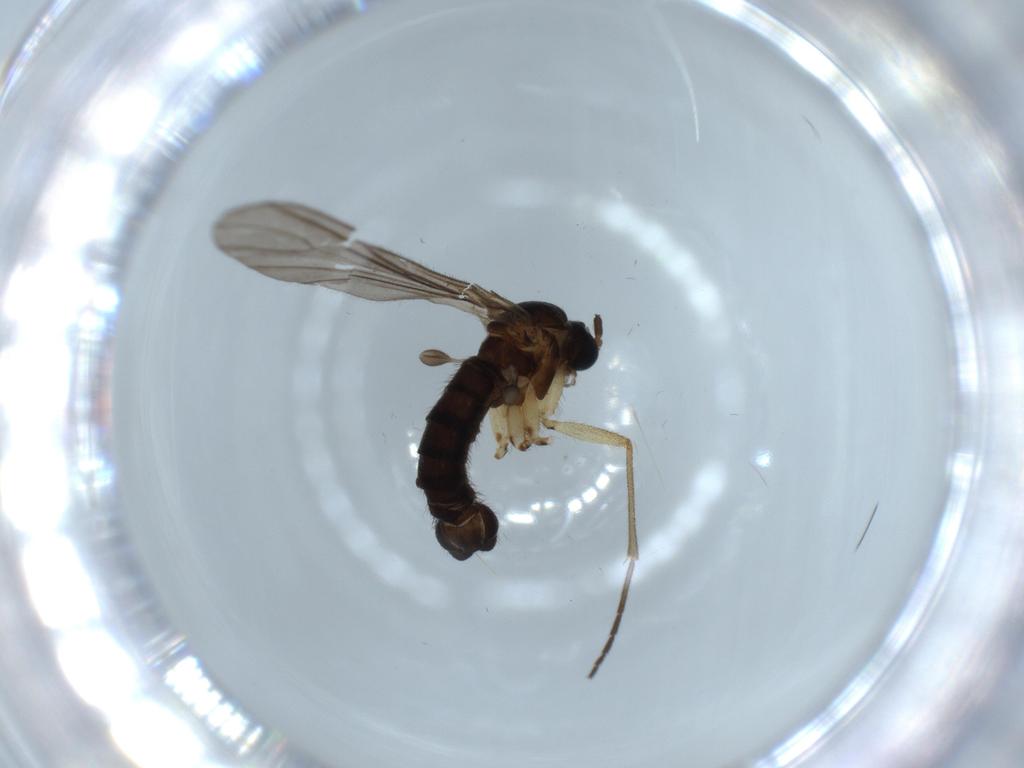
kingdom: Animalia
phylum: Arthropoda
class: Insecta
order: Diptera
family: Sciaridae
